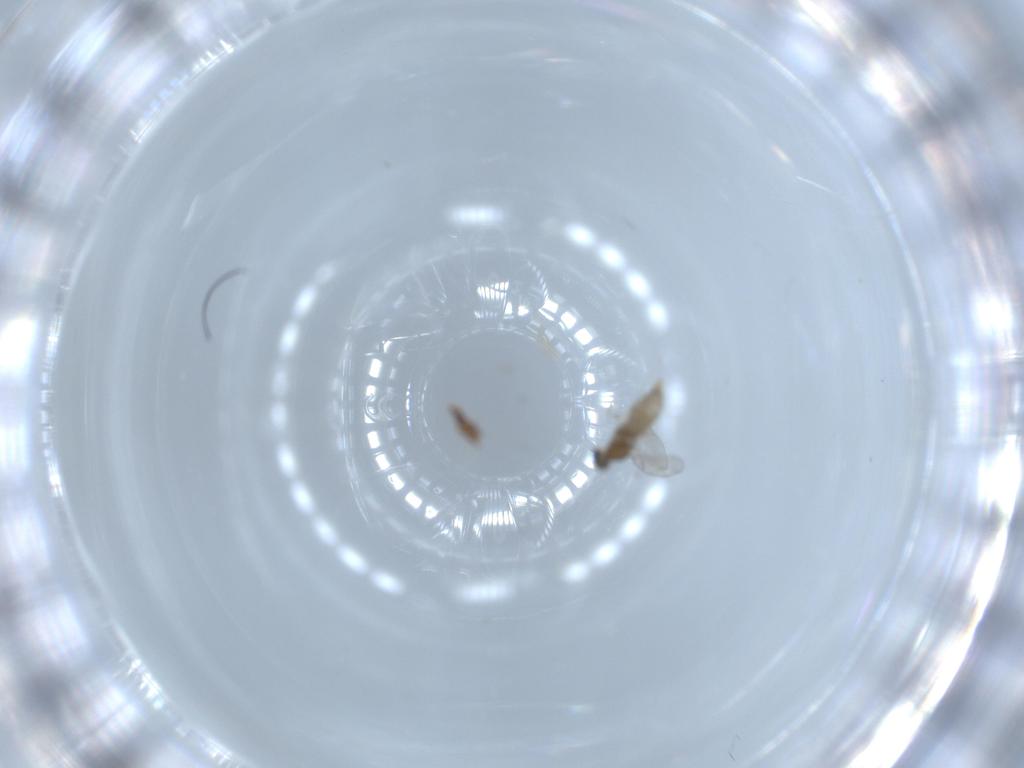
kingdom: Animalia
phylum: Arthropoda
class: Insecta
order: Diptera
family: Cecidomyiidae
